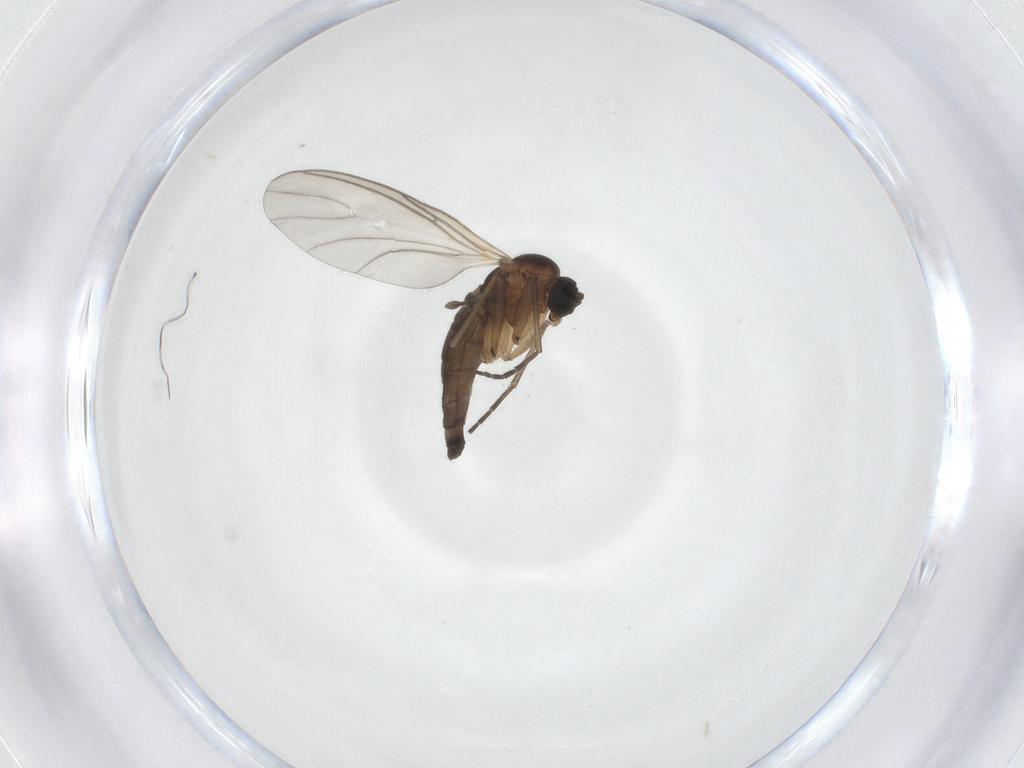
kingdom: Animalia
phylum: Arthropoda
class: Insecta
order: Diptera
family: Sciaridae
